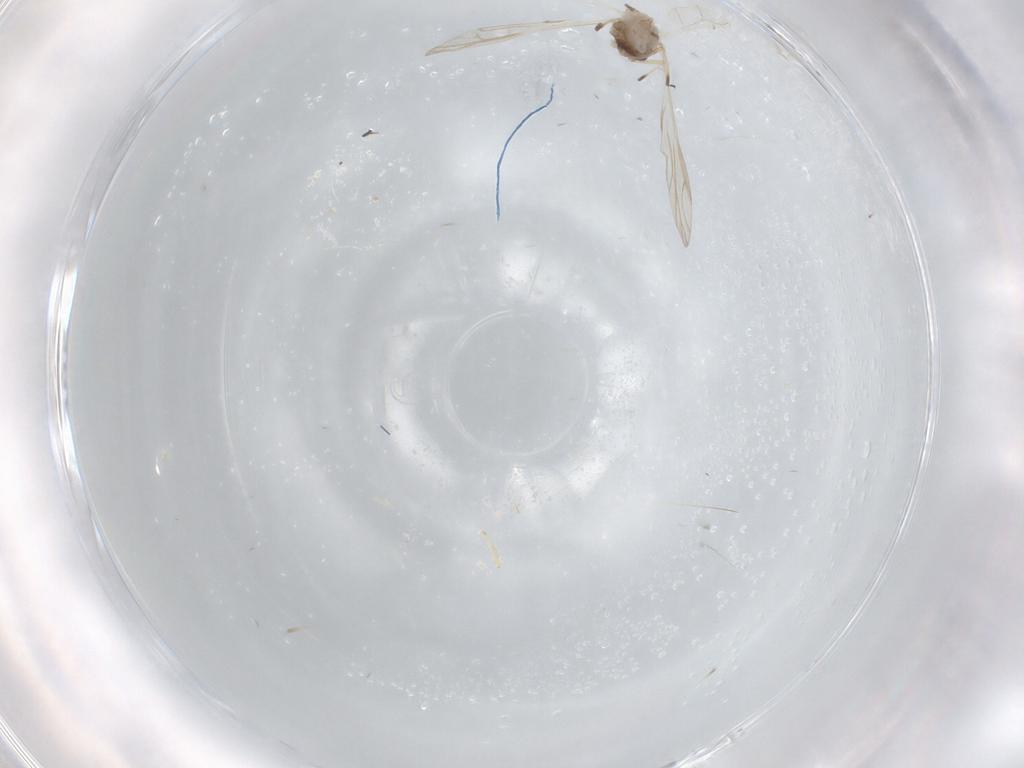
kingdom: Animalia
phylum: Arthropoda
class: Insecta
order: Hemiptera
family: Aphididae
